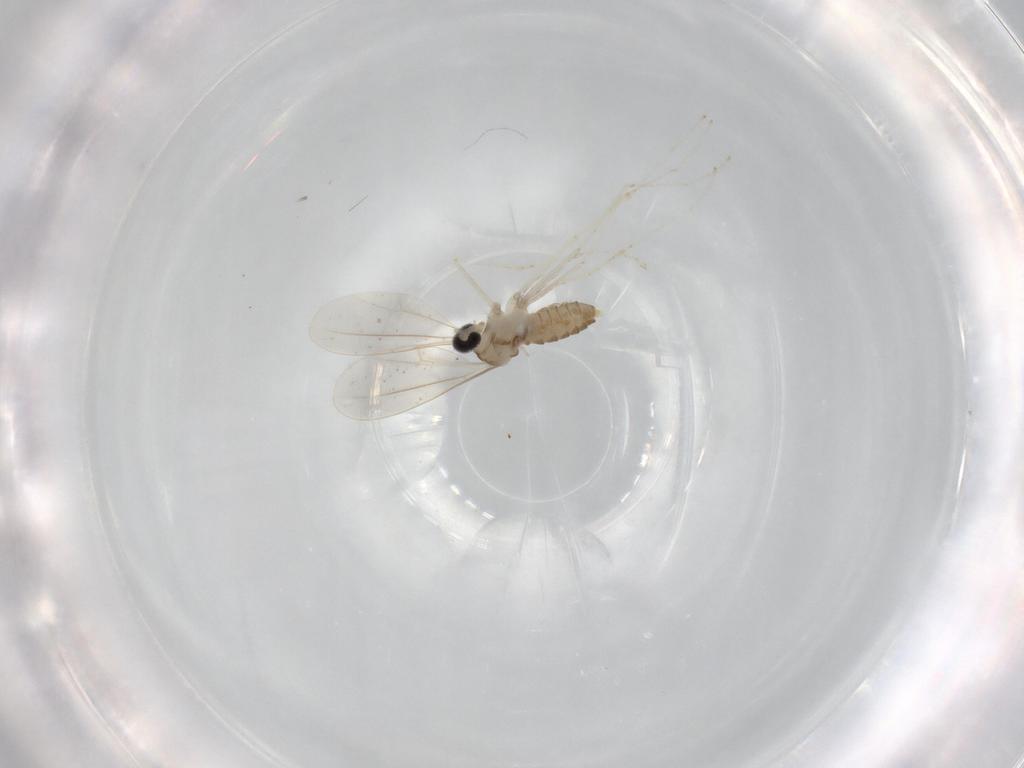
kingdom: Animalia
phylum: Arthropoda
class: Insecta
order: Diptera
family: Cecidomyiidae
